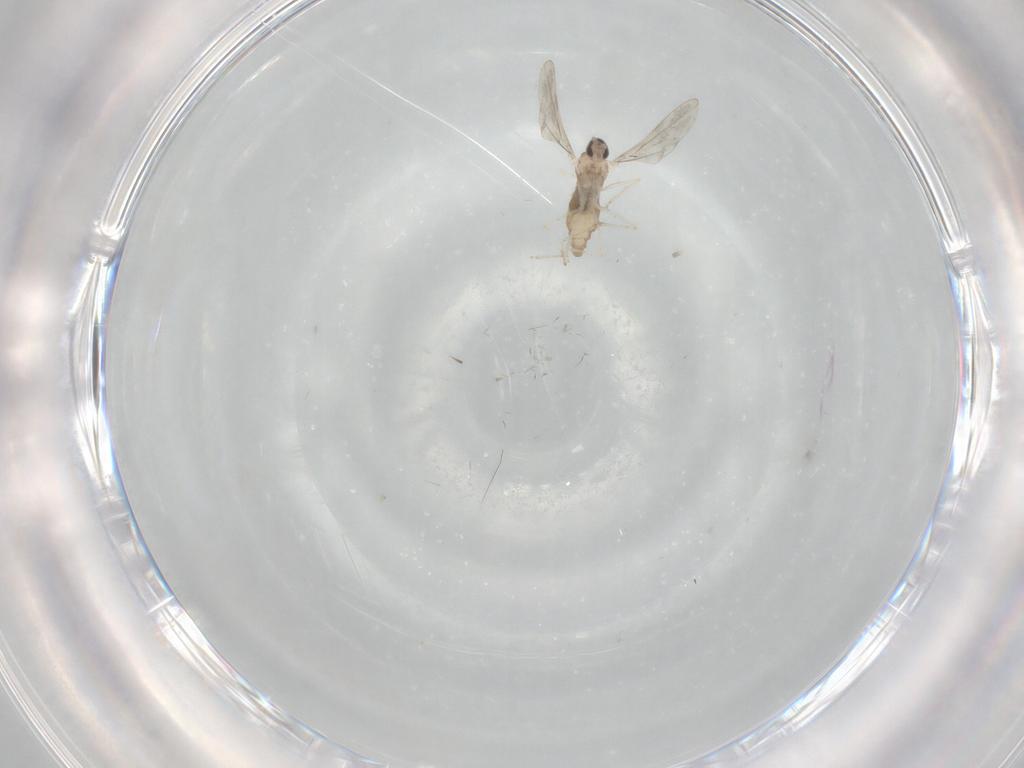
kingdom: Animalia
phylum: Arthropoda
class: Insecta
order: Diptera
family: Cecidomyiidae
